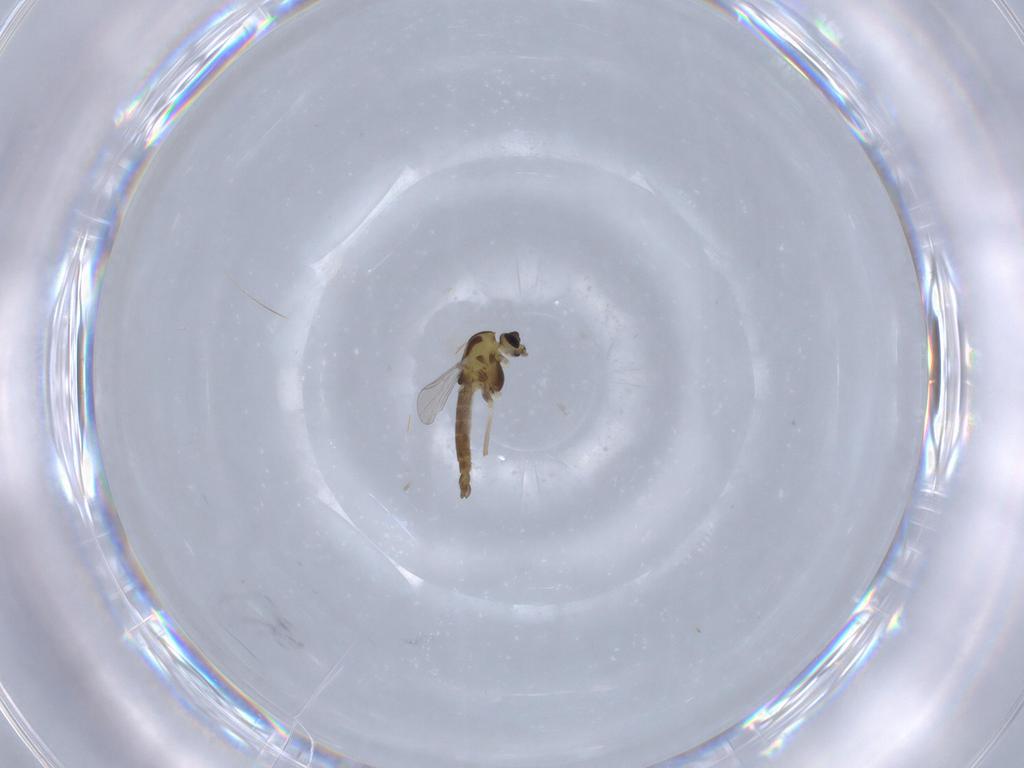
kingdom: Animalia
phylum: Arthropoda
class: Insecta
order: Diptera
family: Chironomidae
